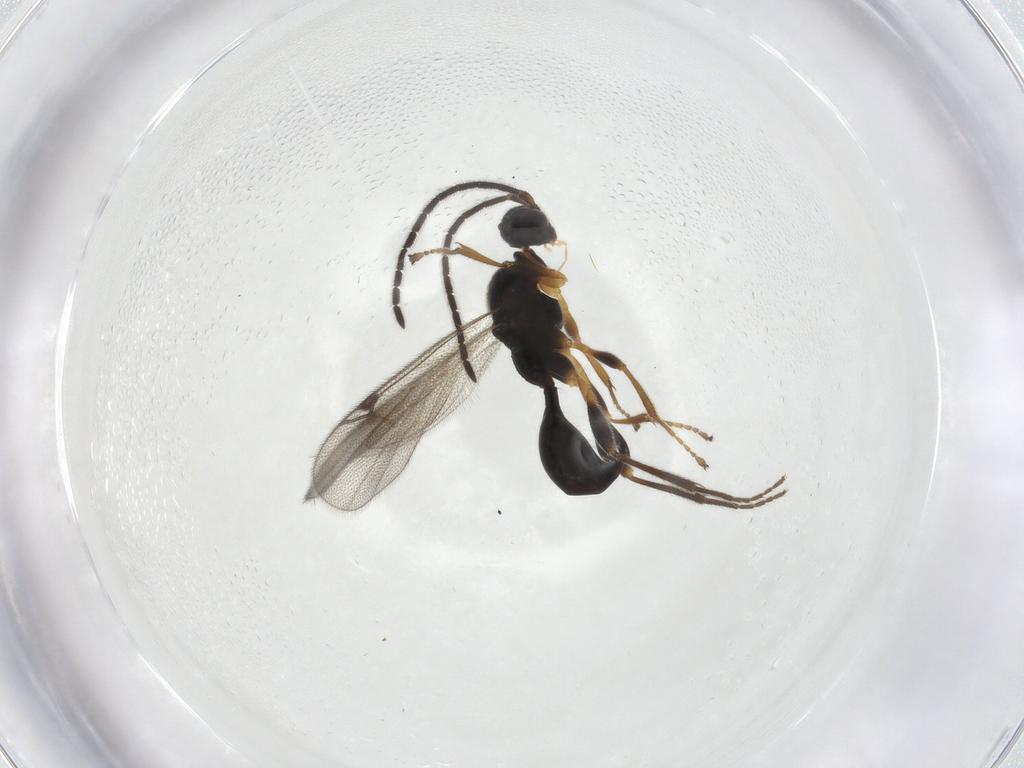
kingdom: Animalia
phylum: Arthropoda
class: Insecta
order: Hymenoptera
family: Proctotrupidae
